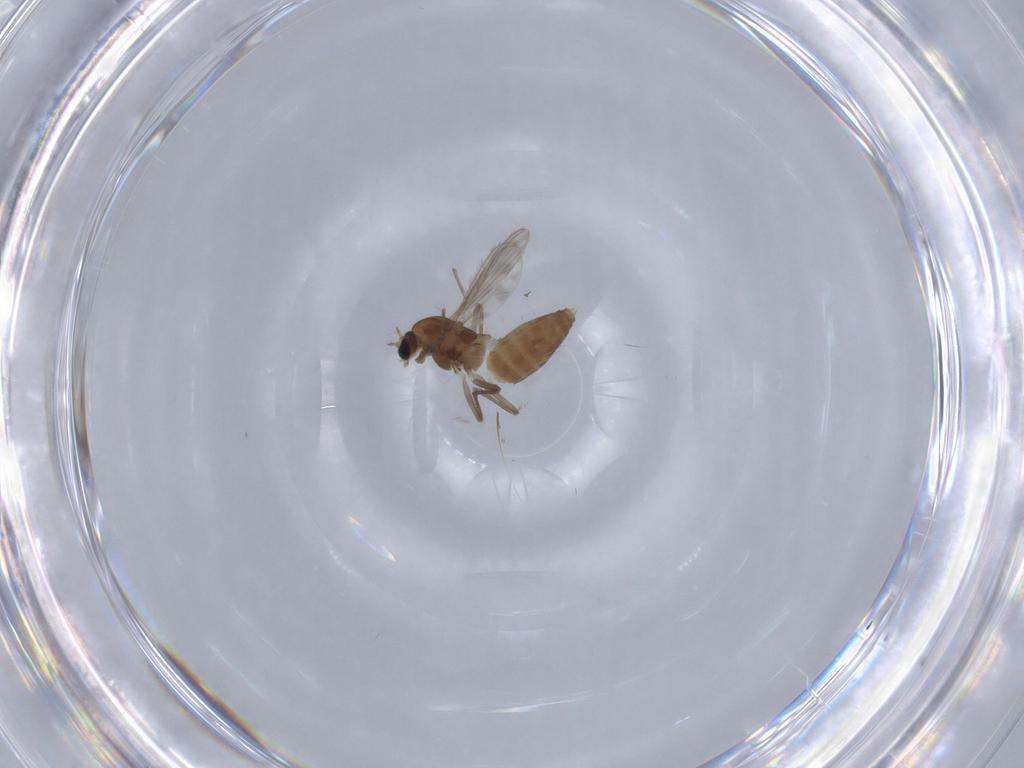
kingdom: Animalia
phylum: Arthropoda
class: Insecta
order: Diptera
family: Chironomidae
